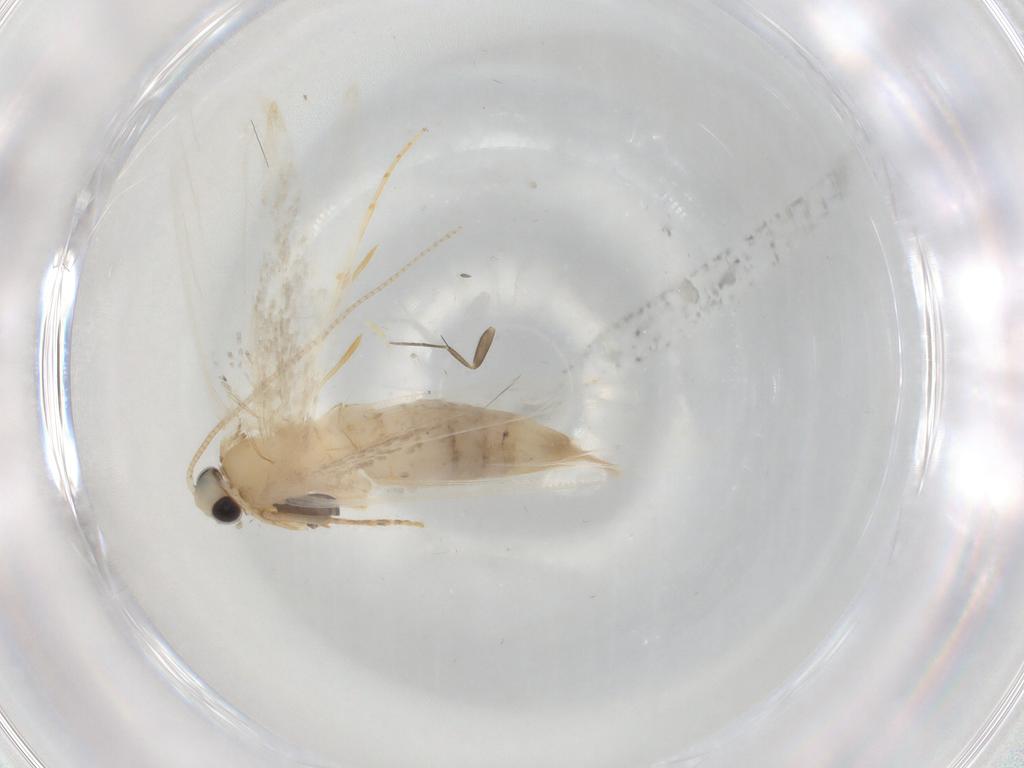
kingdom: Animalia
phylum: Arthropoda
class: Insecta
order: Lepidoptera
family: Tineidae
